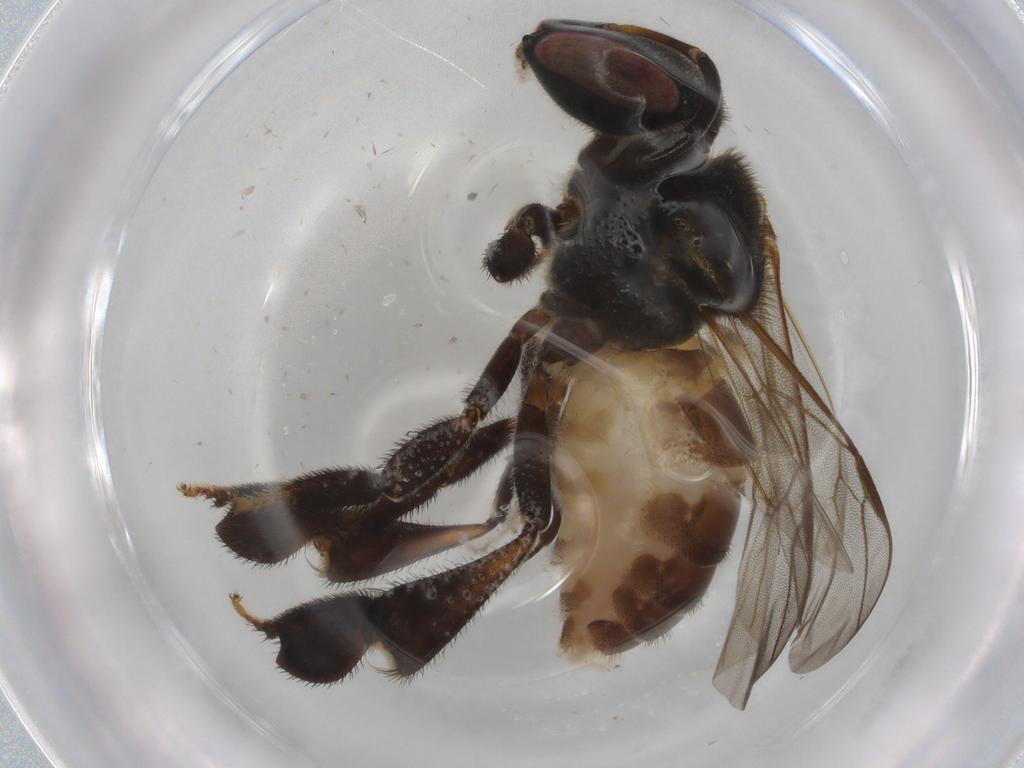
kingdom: Animalia
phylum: Arthropoda
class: Insecta
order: Hymenoptera
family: Apidae
